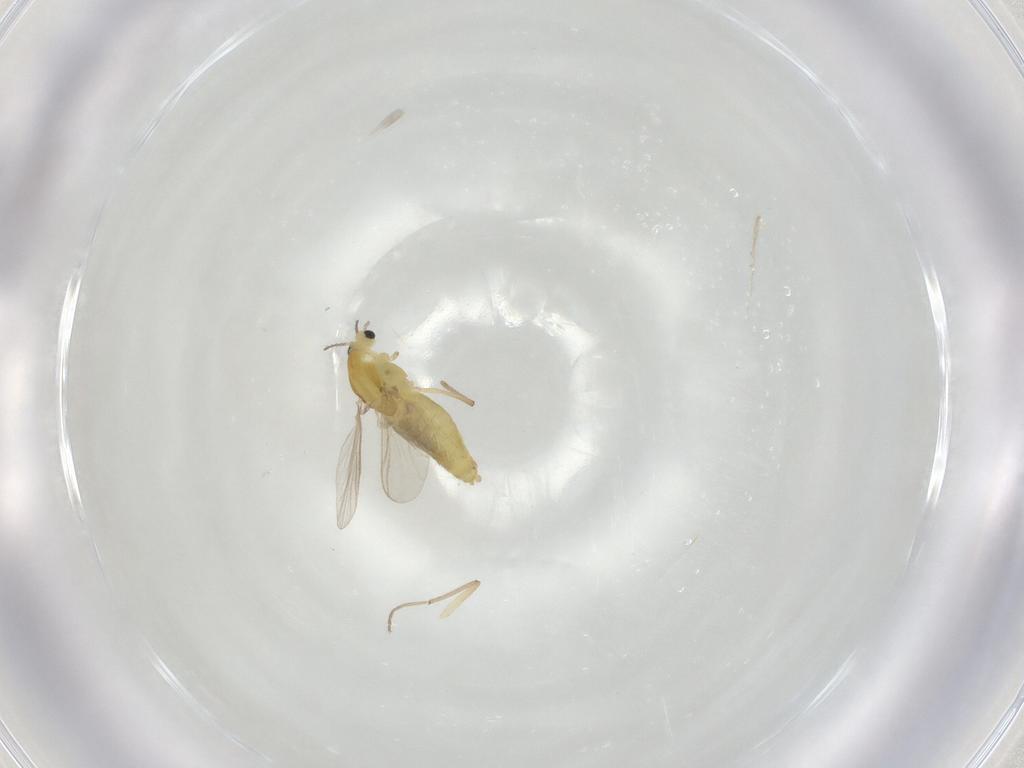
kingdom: Animalia
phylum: Arthropoda
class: Insecta
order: Diptera
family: Chironomidae
